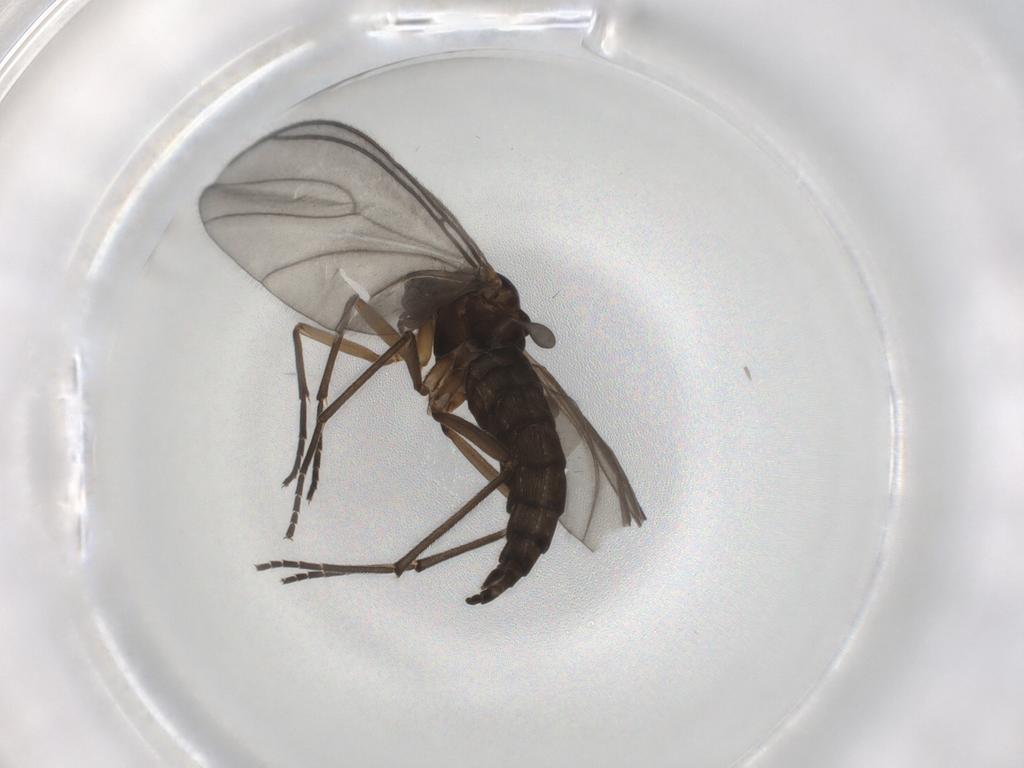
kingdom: Animalia
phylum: Arthropoda
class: Insecta
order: Diptera
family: Sciaridae
